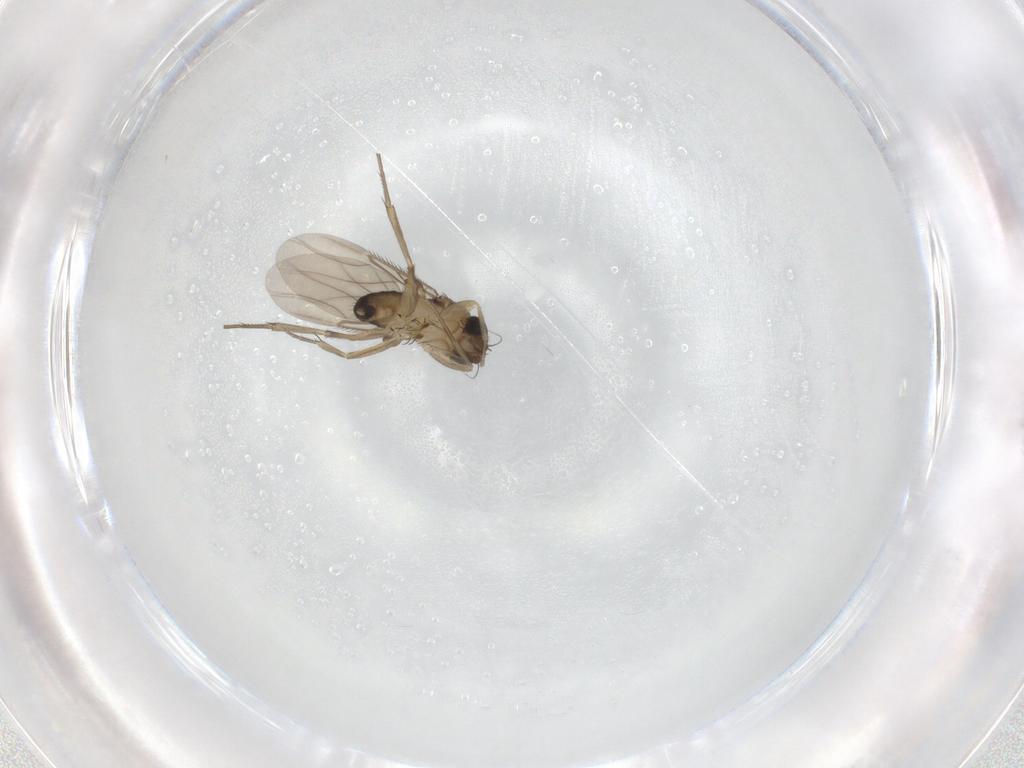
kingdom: Animalia
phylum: Arthropoda
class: Insecta
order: Diptera
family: Phoridae
